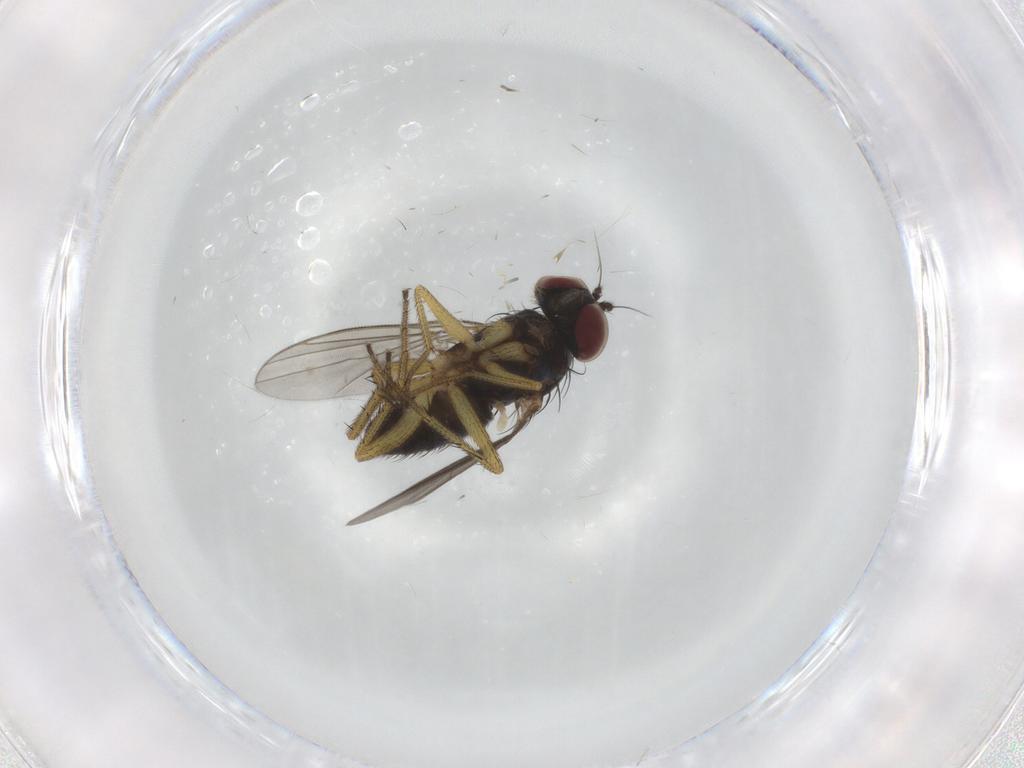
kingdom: Animalia
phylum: Arthropoda
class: Insecta
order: Diptera
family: Dolichopodidae
